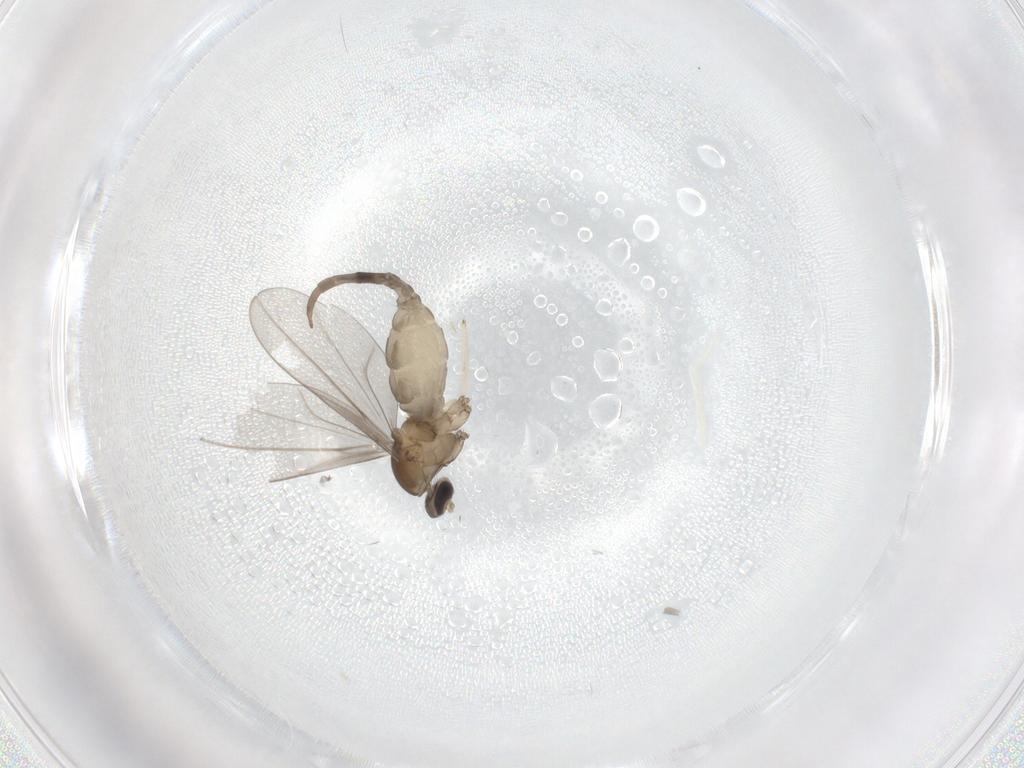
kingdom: Animalia
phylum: Arthropoda
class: Insecta
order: Diptera
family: Cecidomyiidae
